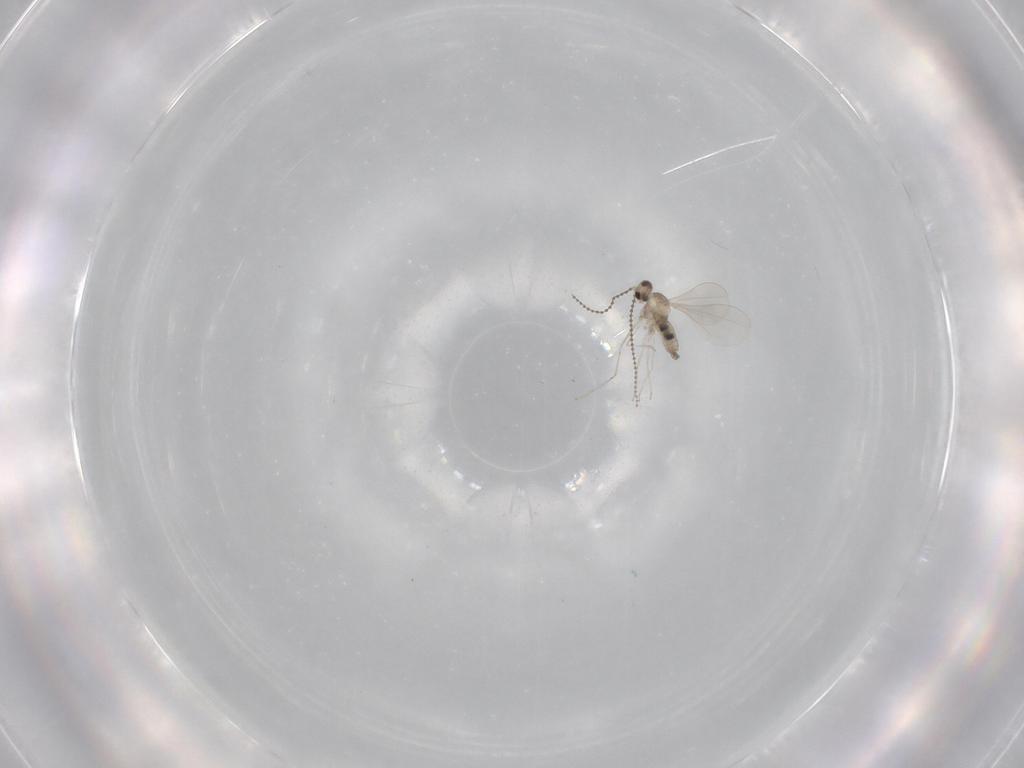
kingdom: Animalia
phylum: Arthropoda
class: Insecta
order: Diptera
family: Cecidomyiidae
